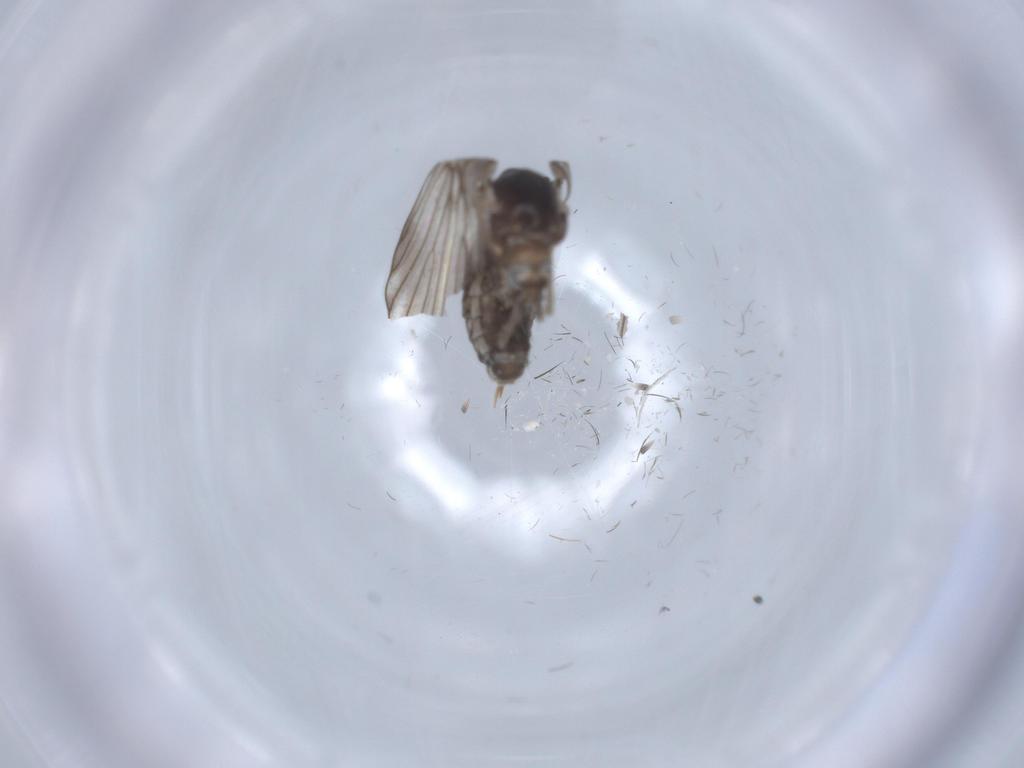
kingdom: Animalia
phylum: Arthropoda
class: Insecta
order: Diptera
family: Psychodidae
